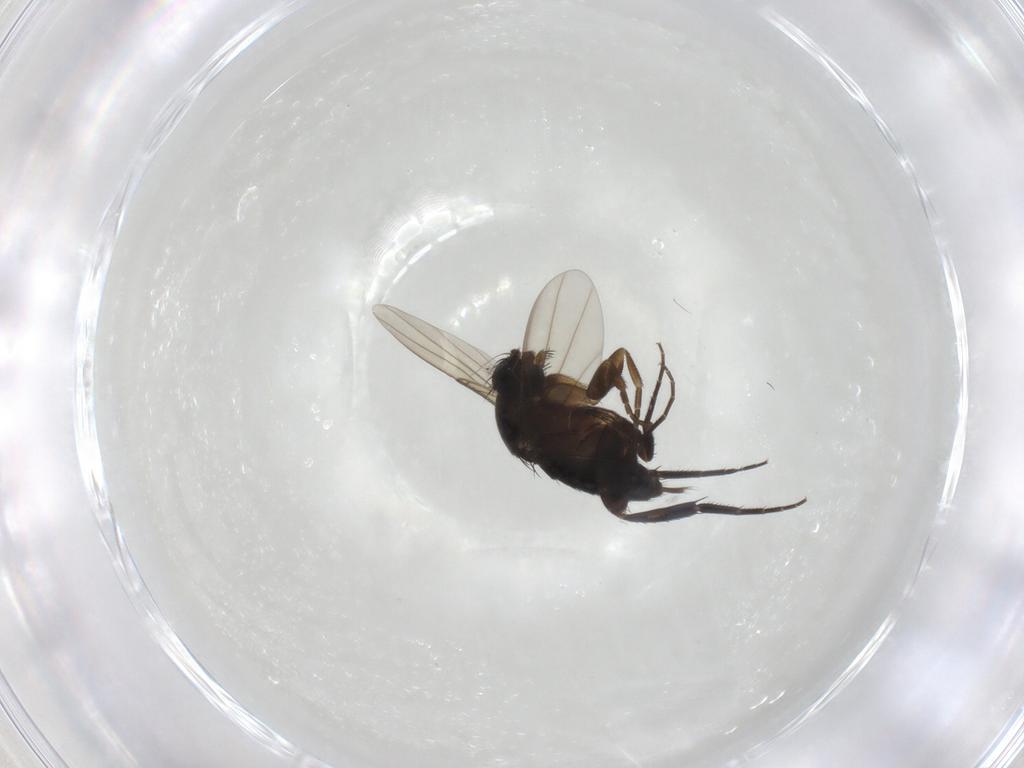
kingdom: Animalia
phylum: Arthropoda
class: Insecta
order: Diptera
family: Phoridae
